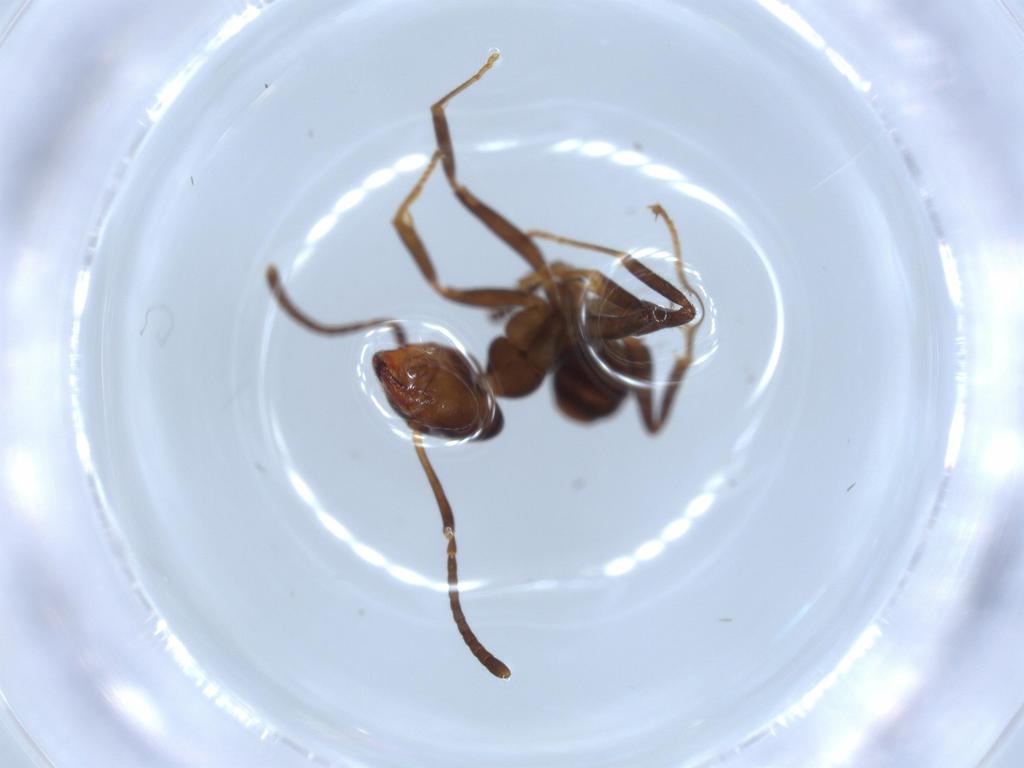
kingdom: Animalia
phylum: Arthropoda
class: Insecta
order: Hymenoptera
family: Formicidae
